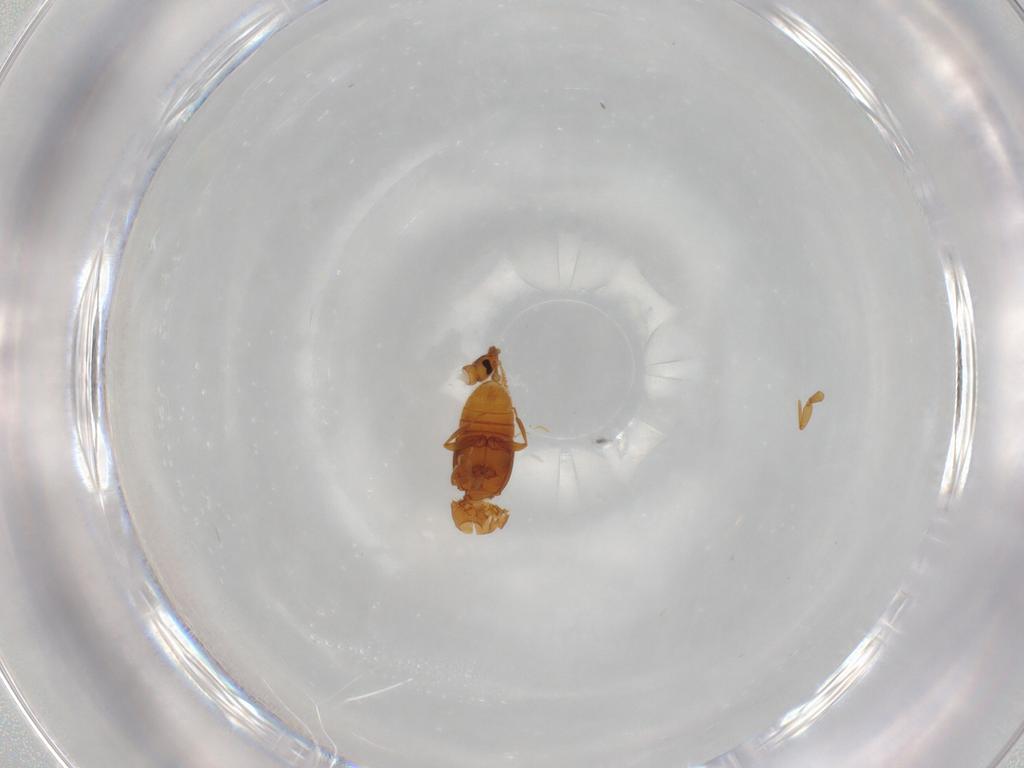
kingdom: Animalia
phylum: Arthropoda
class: Insecta
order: Coleoptera
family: Staphylinidae
